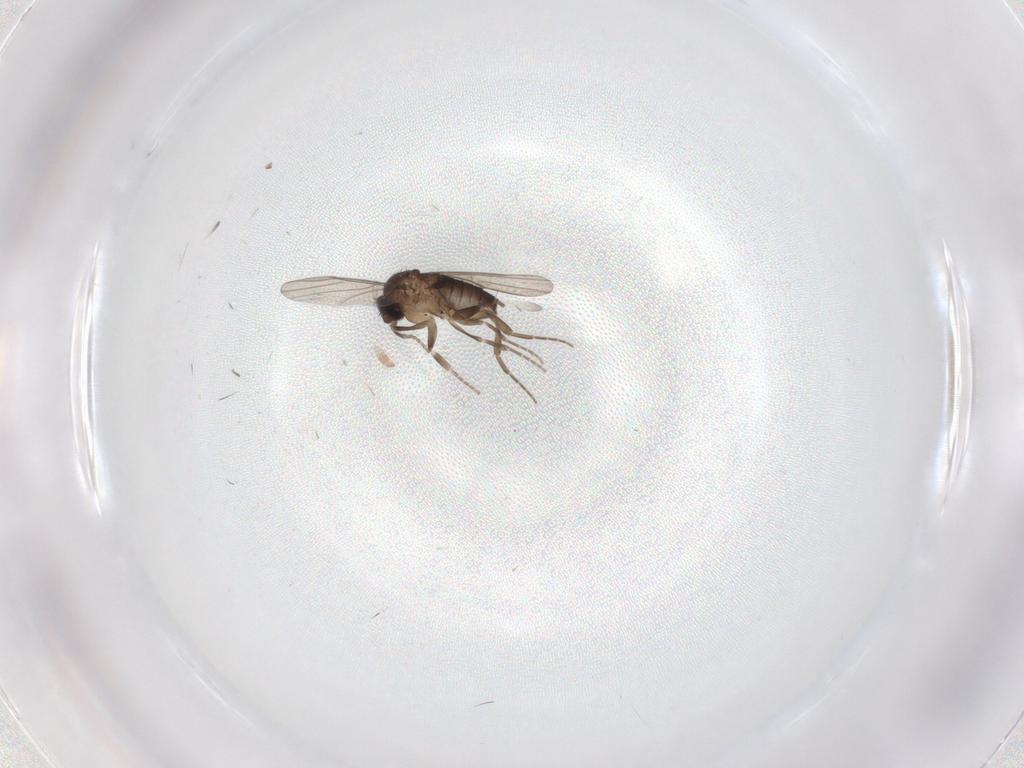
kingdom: Animalia
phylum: Arthropoda
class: Insecta
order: Diptera
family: Phoridae
